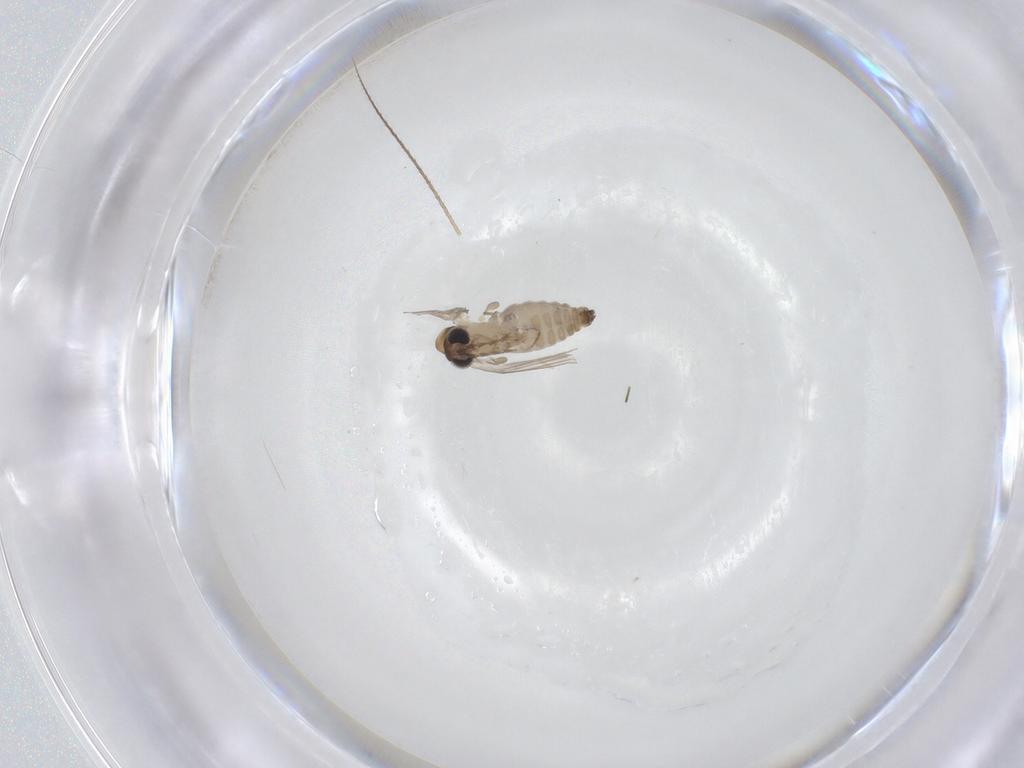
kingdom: Animalia
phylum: Arthropoda
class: Insecta
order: Diptera
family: Psychodidae
